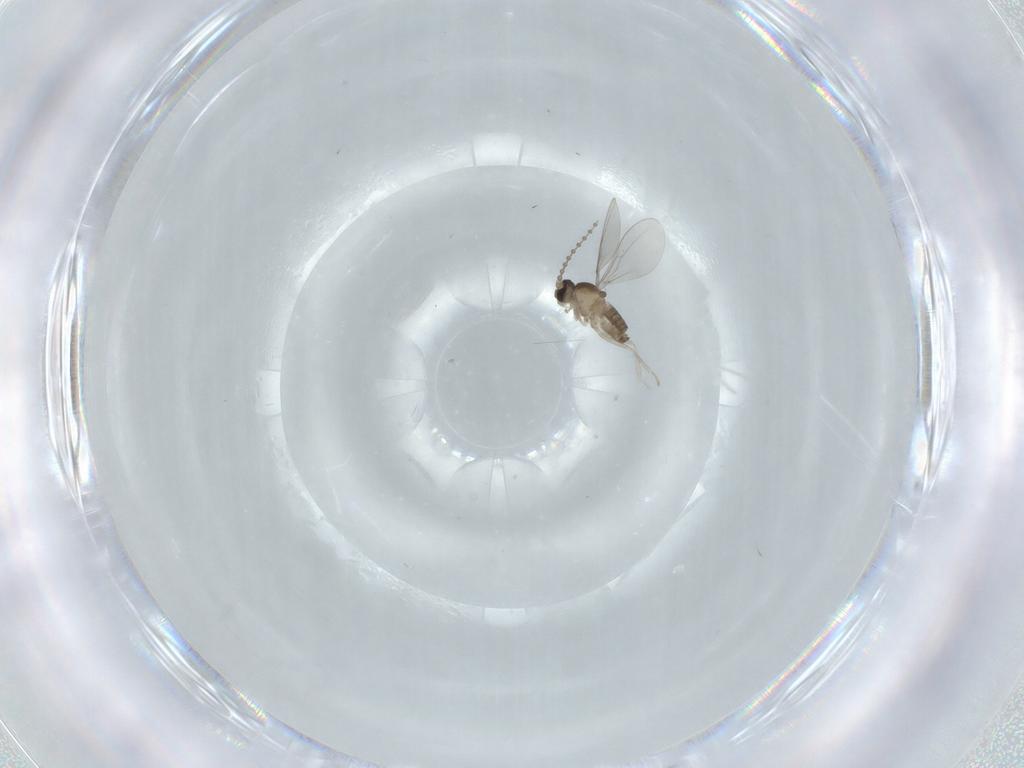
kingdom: Animalia
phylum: Arthropoda
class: Insecta
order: Diptera
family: Cecidomyiidae
